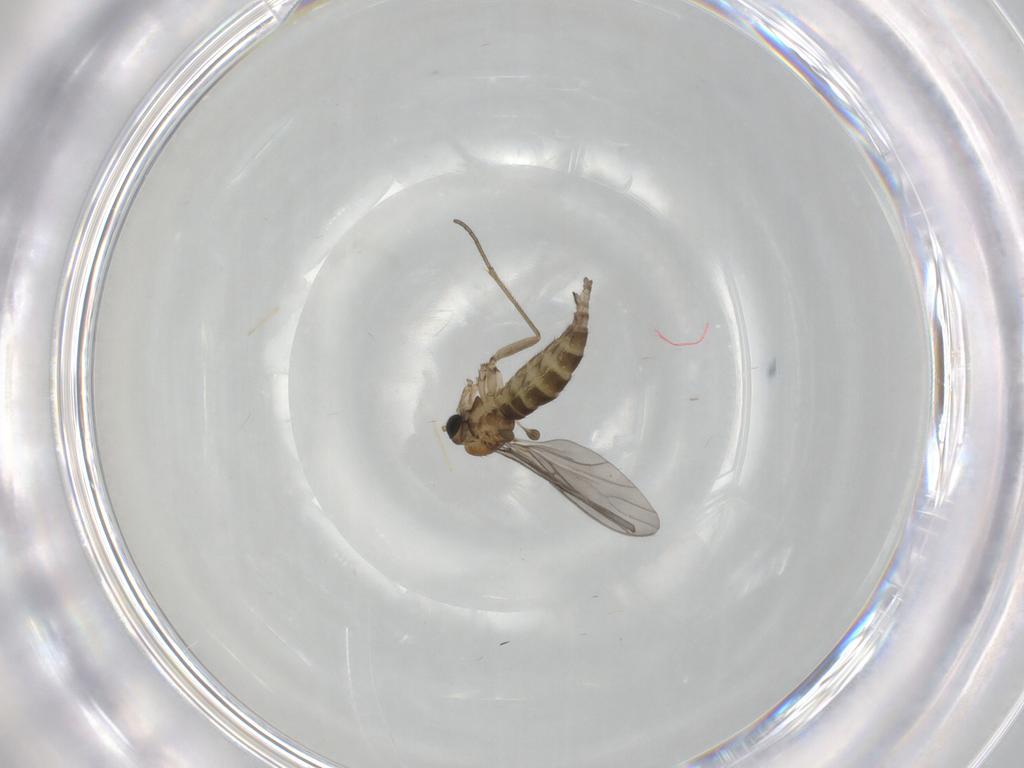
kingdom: Animalia
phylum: Arthropoda
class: Insecta
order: Diptera
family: Sciaridae
